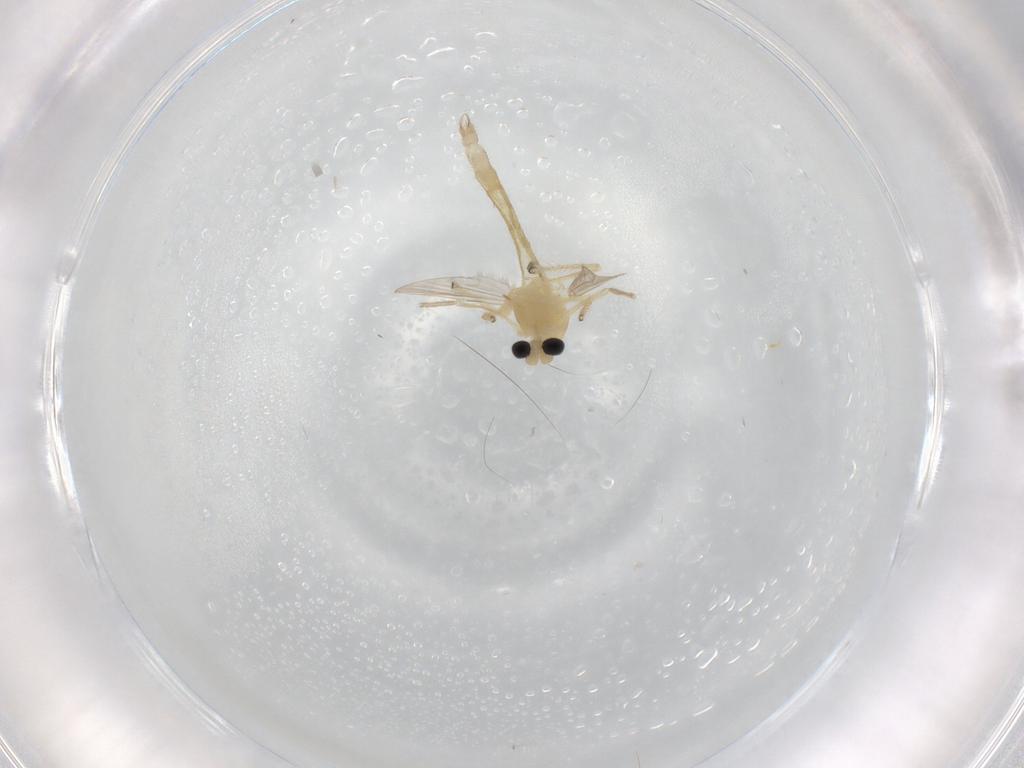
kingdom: Animalia
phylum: Arthropoda
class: Insecta
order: Diptera
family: Chironomidae
